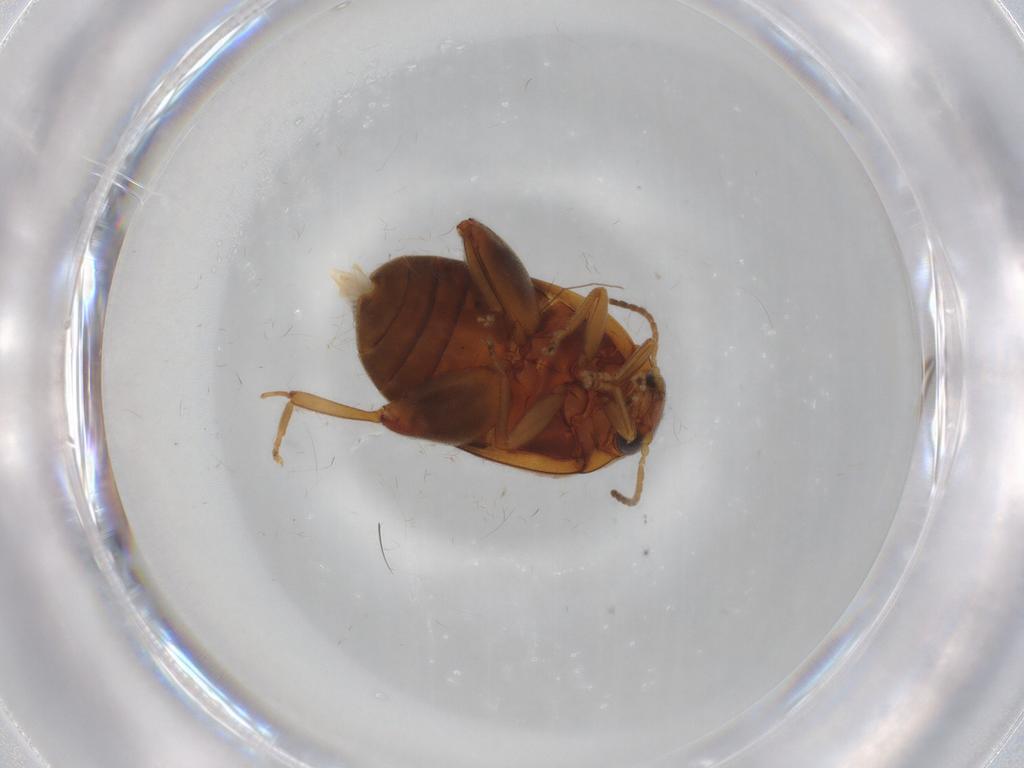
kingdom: Animalia
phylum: Arthropoda
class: Insecta
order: Coleoptera
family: Scirtidae
